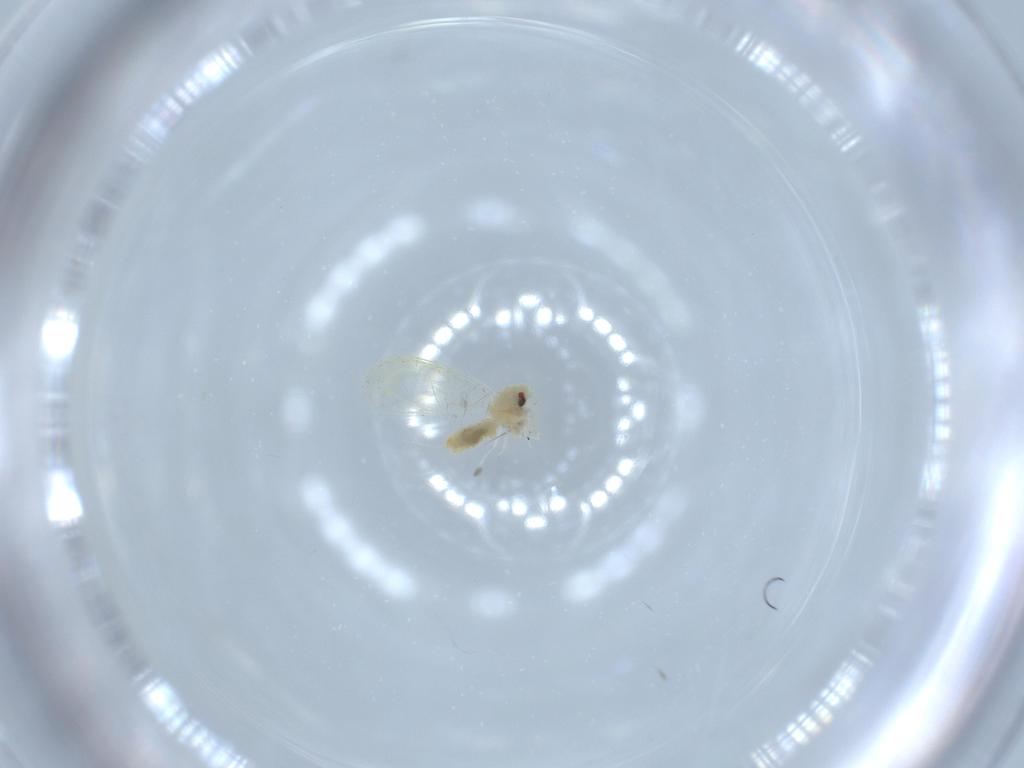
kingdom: Animalia
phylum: Arthropoda
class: Insecta
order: Hemiptera
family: Aleyrodidae
